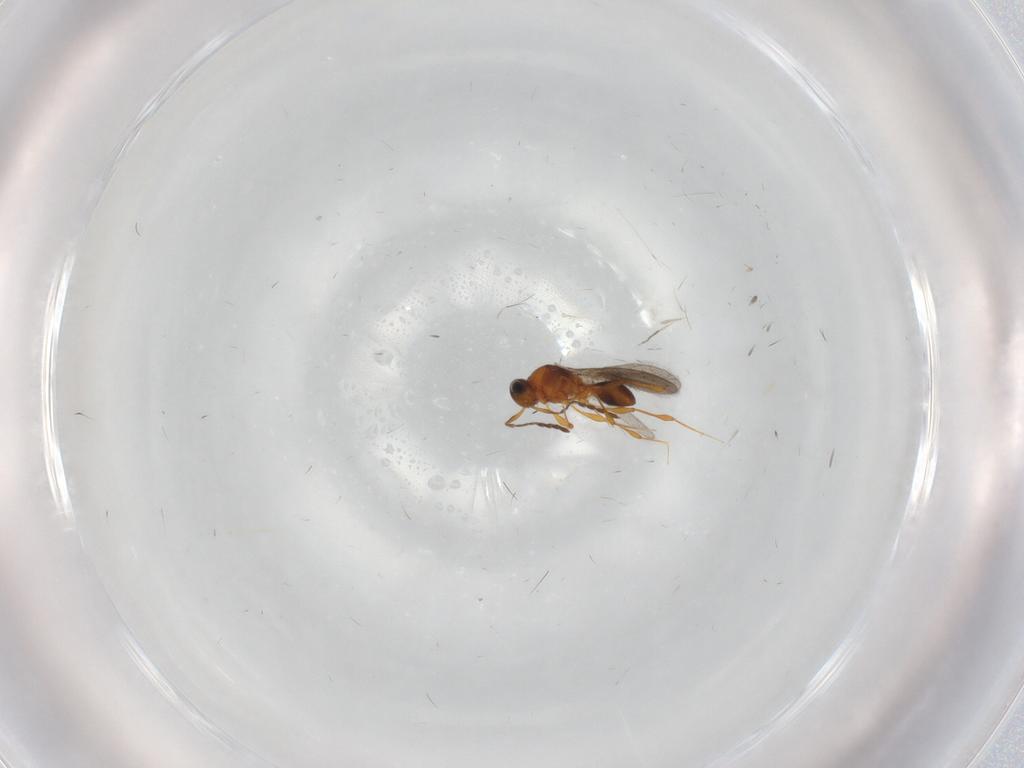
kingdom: Animalia
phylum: Arthropoda
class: Insecta
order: Hymenoptera
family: Platygastridae
